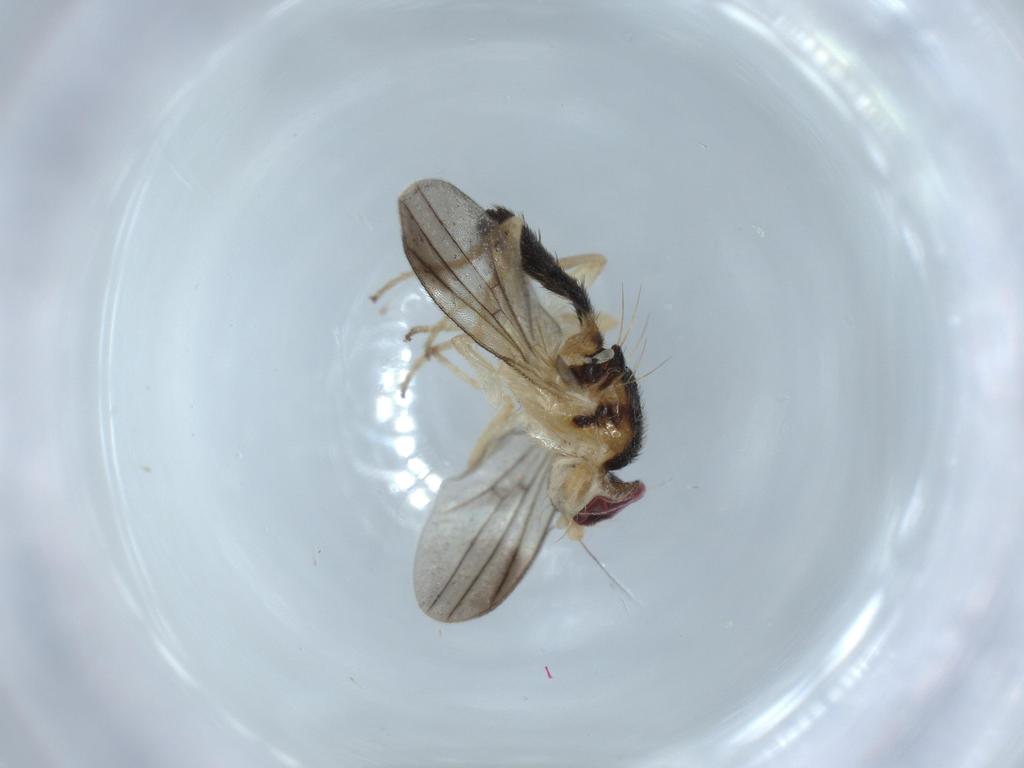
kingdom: Animalia
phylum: Arthropoda
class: Insecta
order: Diptera
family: Clusiidae
